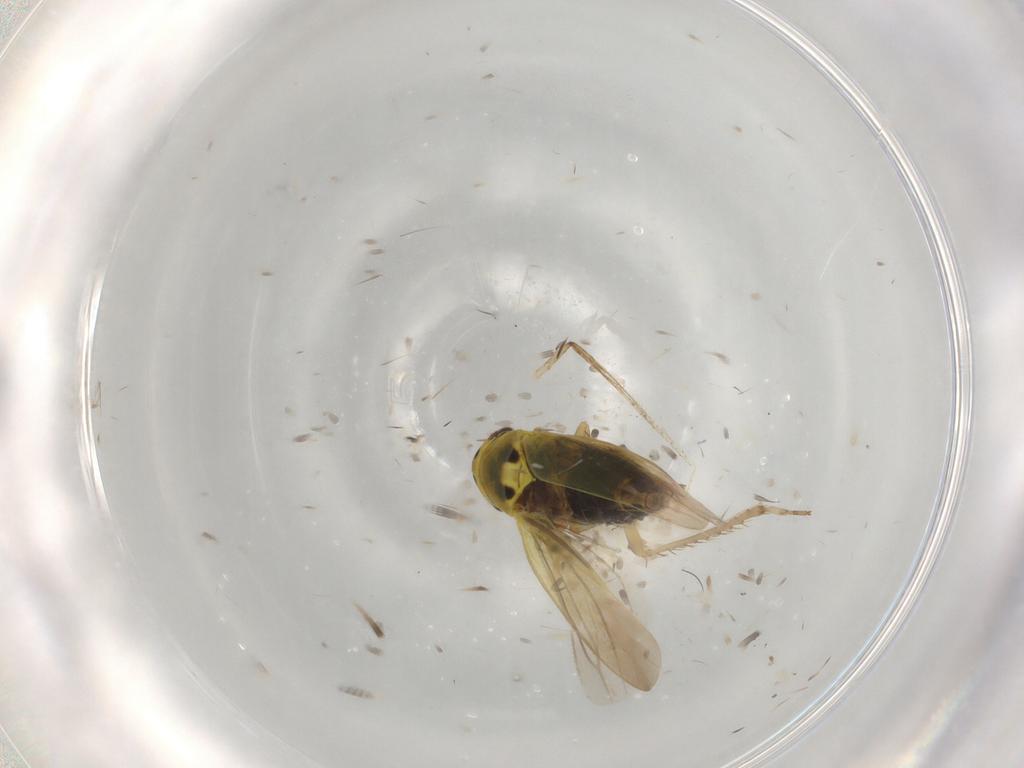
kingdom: Animalia
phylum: Arthropoda
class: Insecta
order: Hemiptera
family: Cicadellidae
